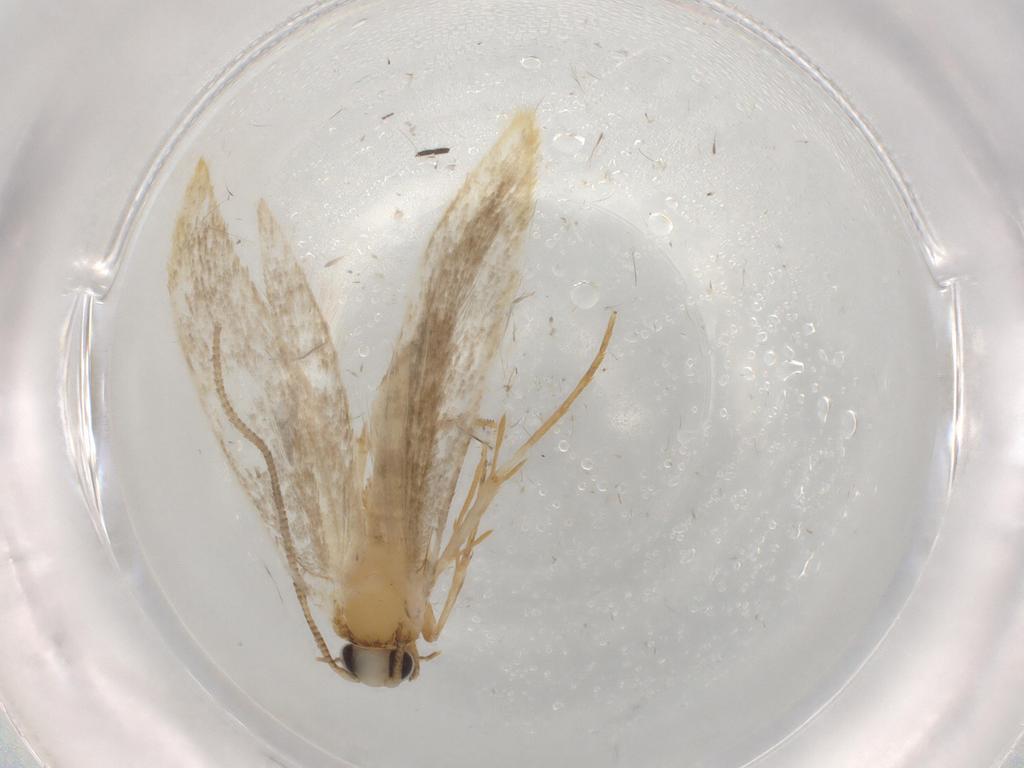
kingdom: Animalia
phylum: Arthropoda
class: Insecta
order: Lepidoptera
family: Tineidae
